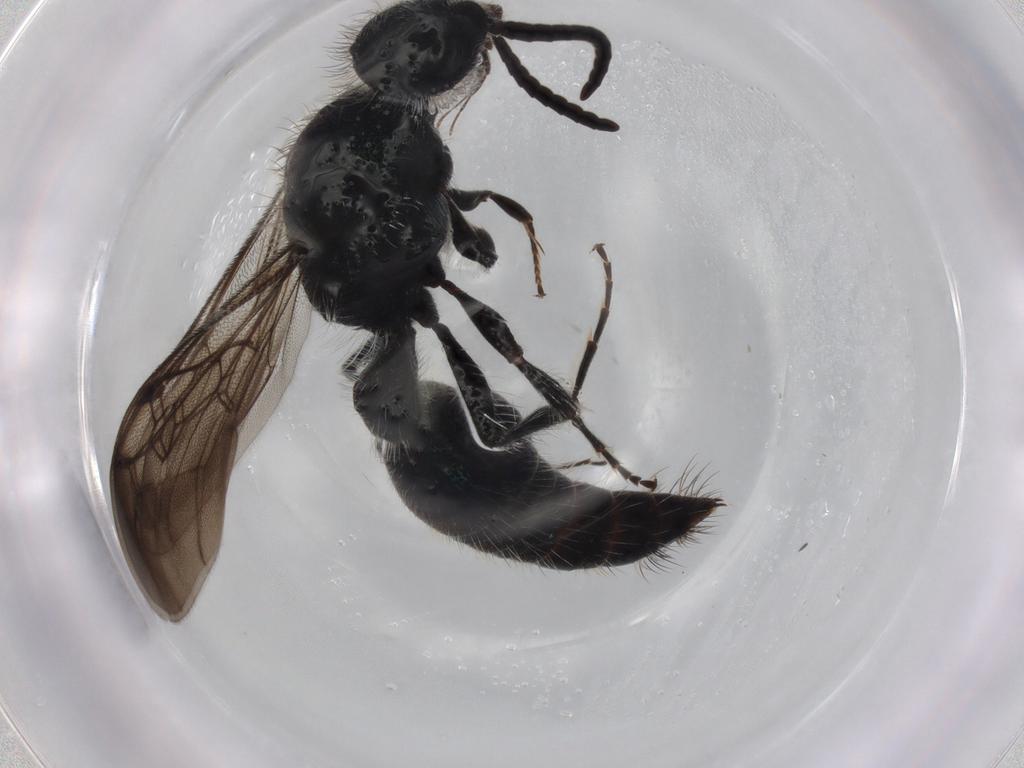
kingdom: Animalia
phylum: Arthropoda
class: Insecta
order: Hymenoptera
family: Mutillidae
